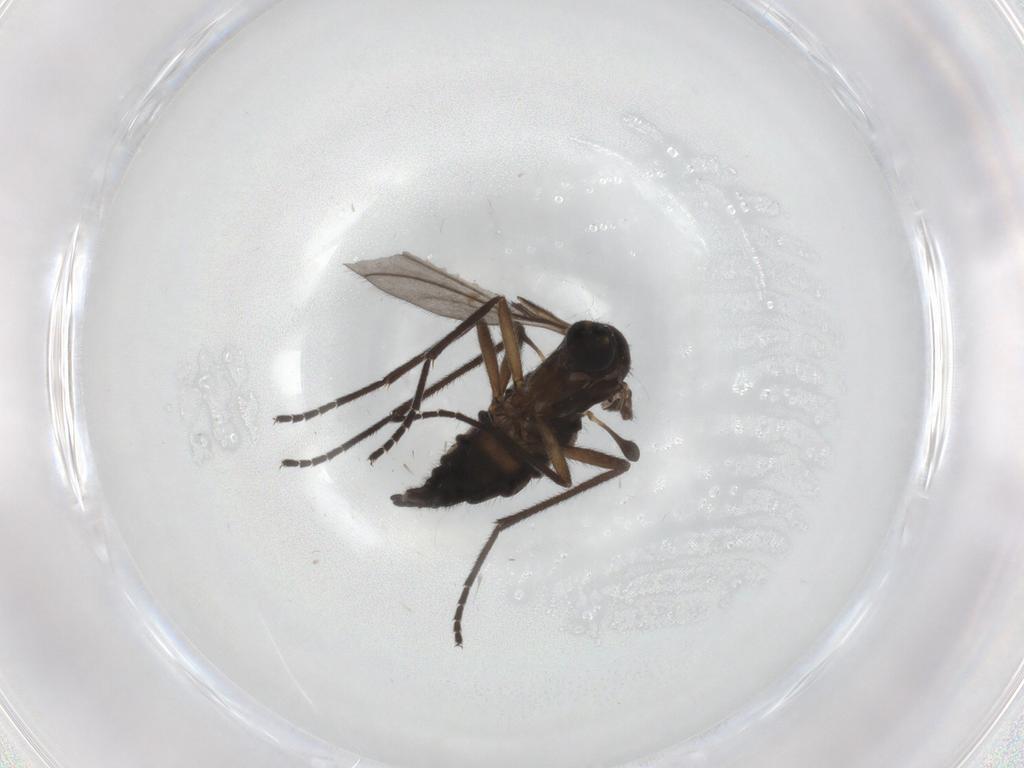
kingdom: Animalia
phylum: Arthropoda
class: Insecta
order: Diptera
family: Sciaridae
